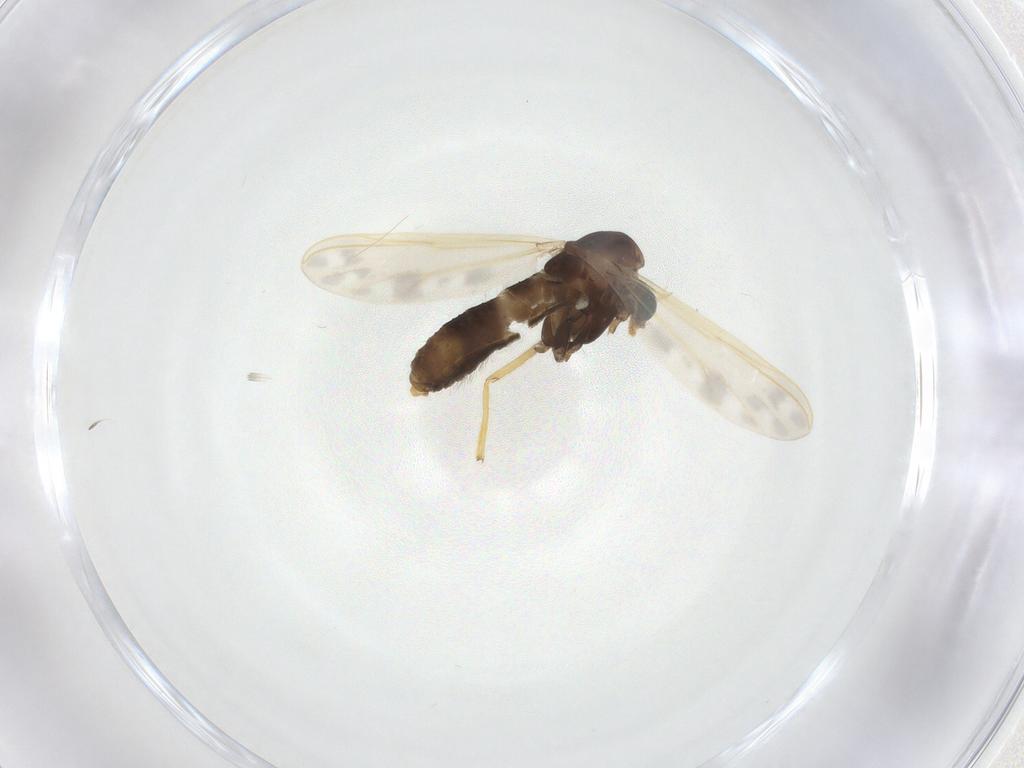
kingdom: Animalia
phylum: Arthropoda
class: Insecta
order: Diptera
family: Chironomidae
